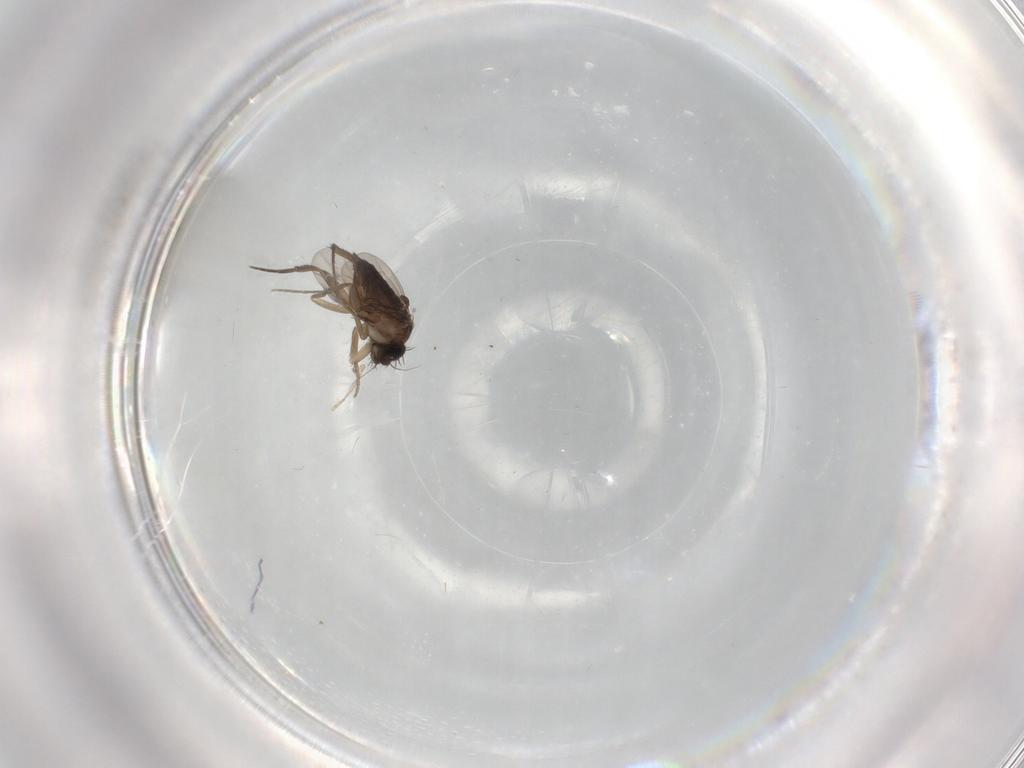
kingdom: Animalia
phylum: Arthropoda
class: Insecta
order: Diptera
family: Phoridae
